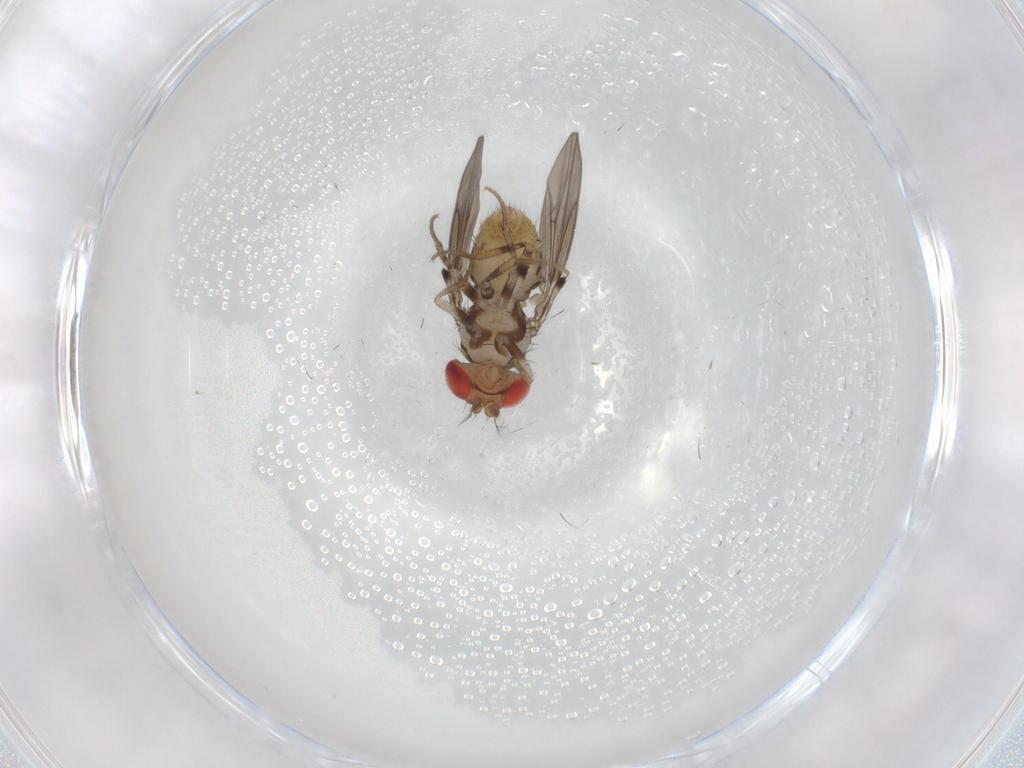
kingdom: Animalia
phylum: Arthropoda
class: Insecta
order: Diptera
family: Drosophilidae
